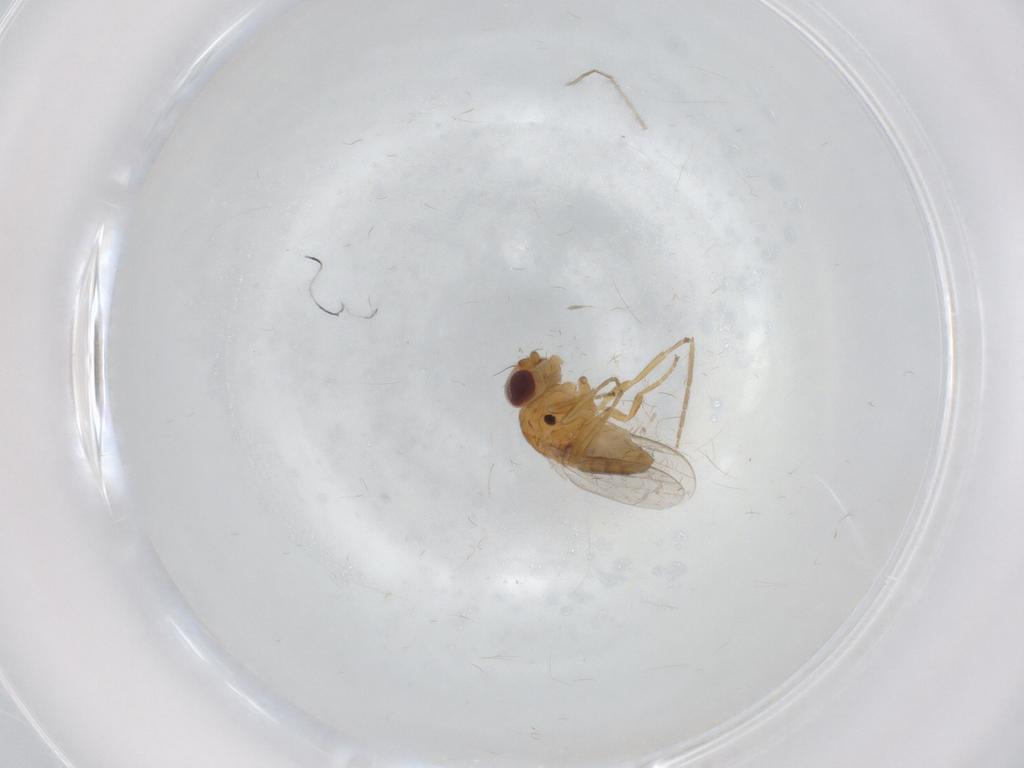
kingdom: Animalia
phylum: Arthropoda
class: Insecta
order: Diptera
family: Chloropidae
